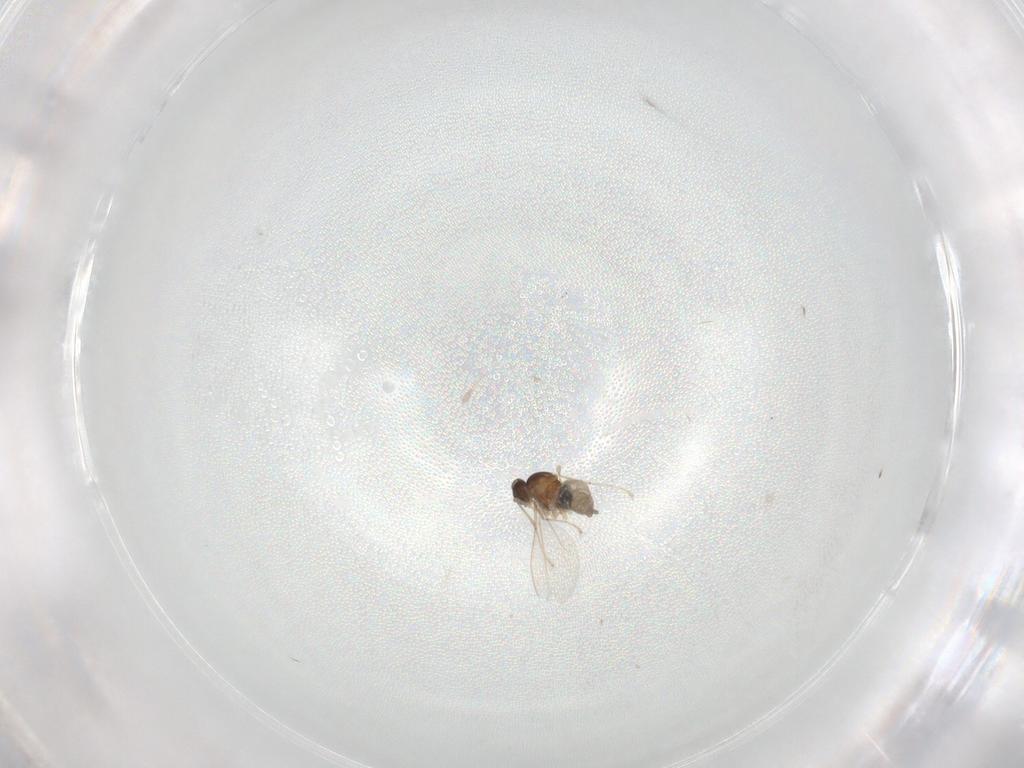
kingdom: Animalia
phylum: Arthropoda
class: Insecta
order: Diptera
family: Cecidomyiidae
